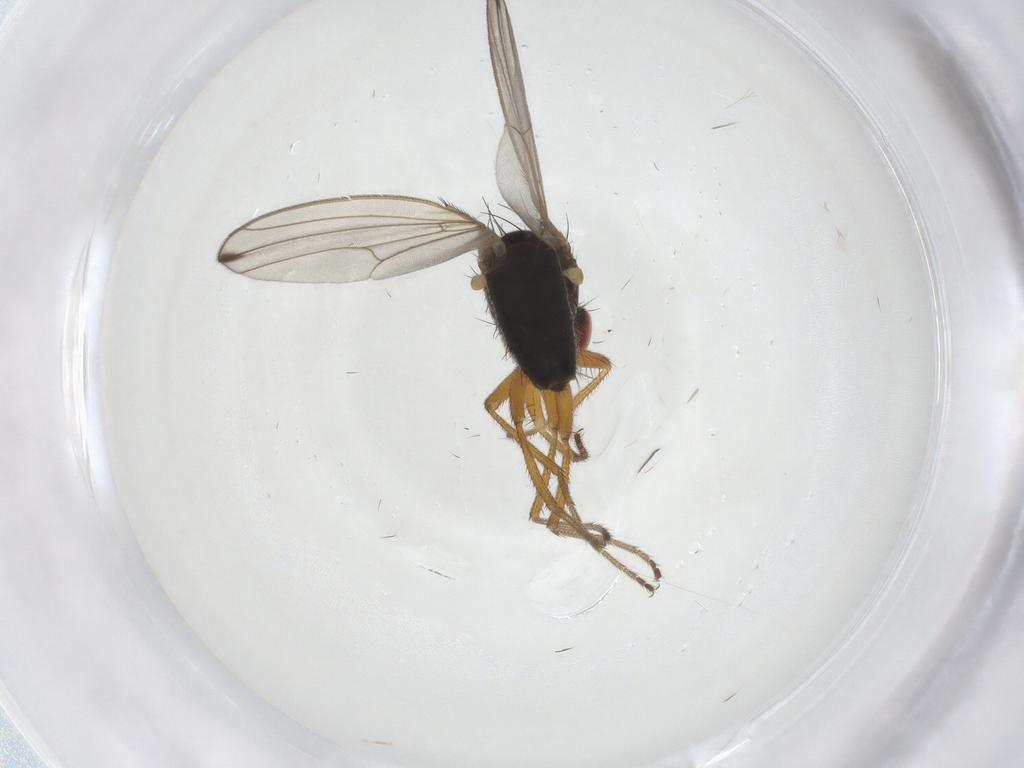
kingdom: Animalia
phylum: Arthropoda
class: Insecta
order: Diptera
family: Drosophilidae
